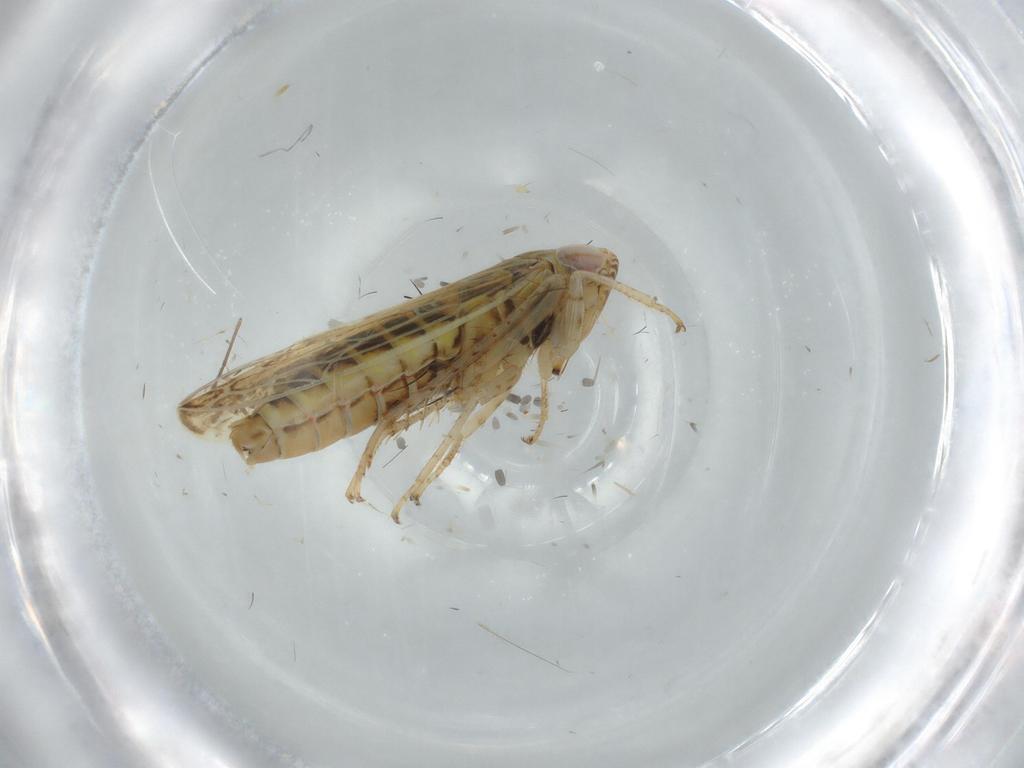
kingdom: Animalia
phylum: Arthropoda
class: Insecta
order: Hemiptera
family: Cicadellidae
